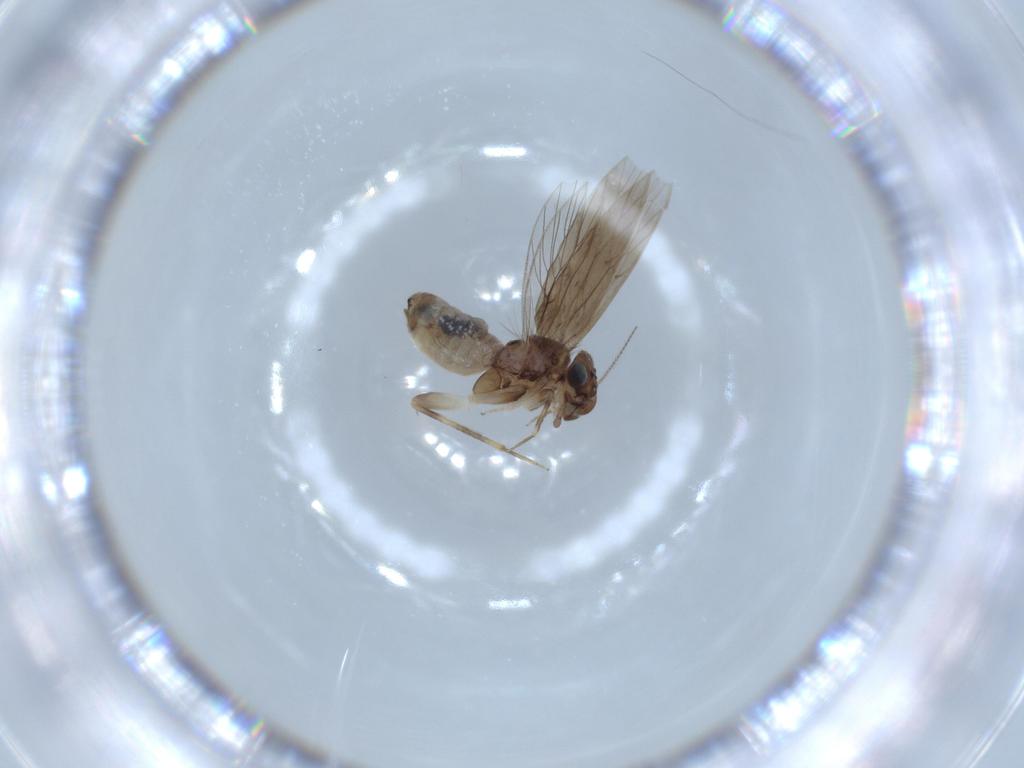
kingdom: Animalia
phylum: Arthropoda
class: Insecta
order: Psocodea
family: Lepidopsocidae
